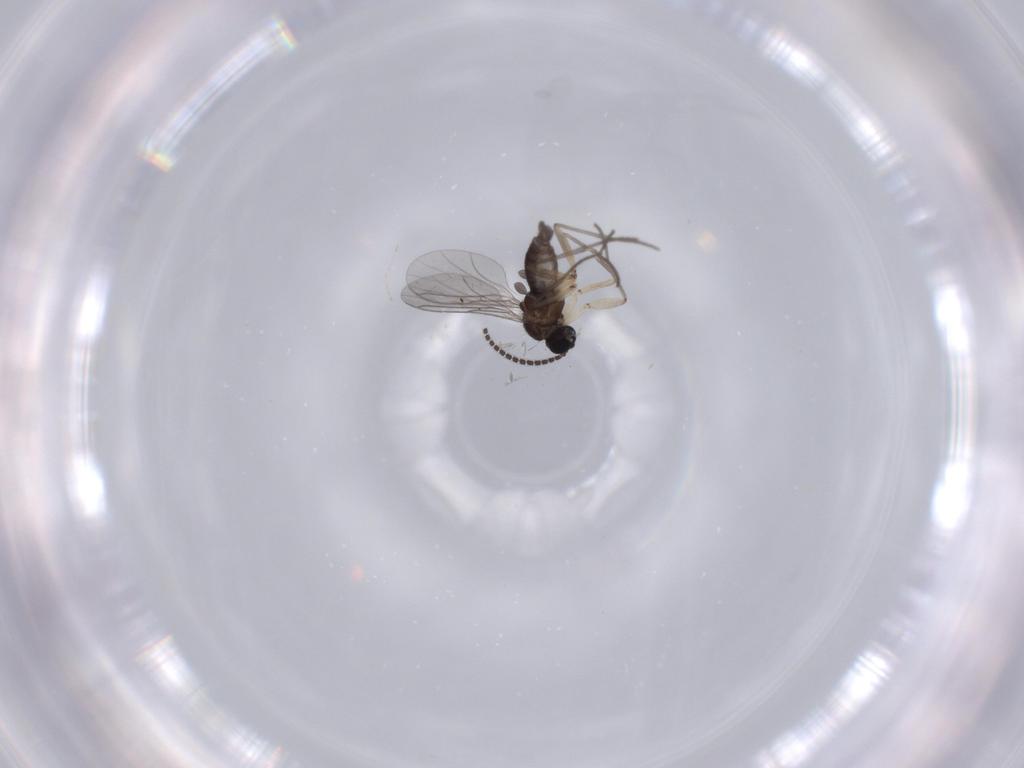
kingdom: Animalia
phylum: Arthropoda
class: Insecta
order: Diptera
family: Sciaridae
